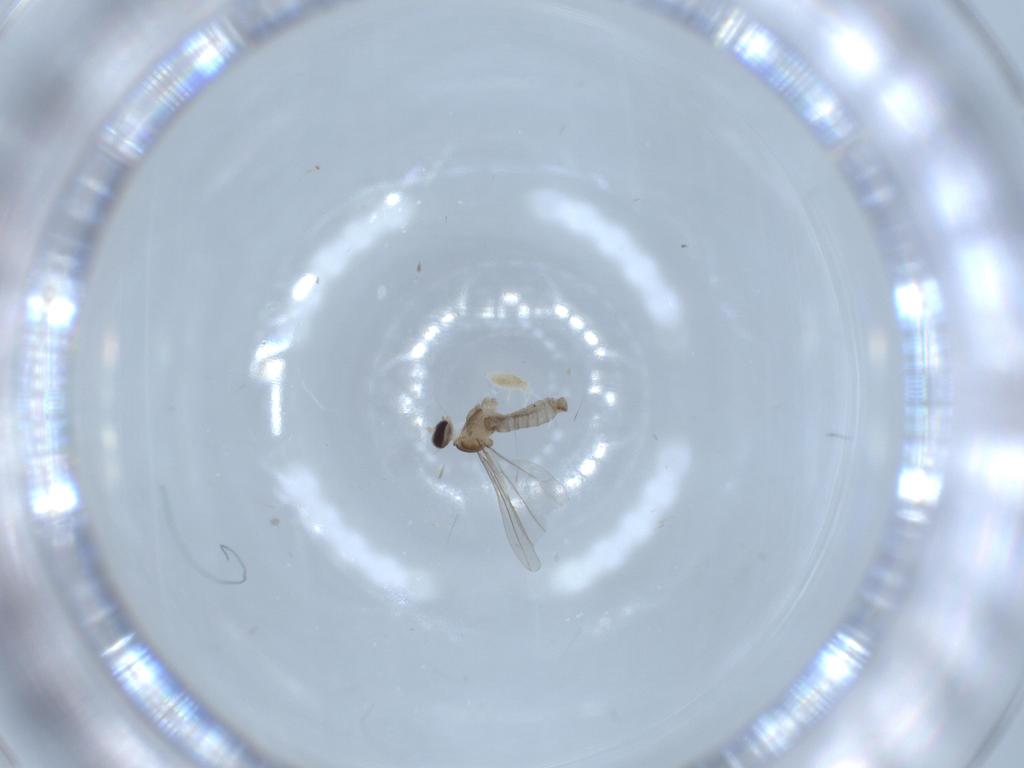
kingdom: Animalia
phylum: Arthropoda
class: Insecta
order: Diptera
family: Cecidomyiidae
